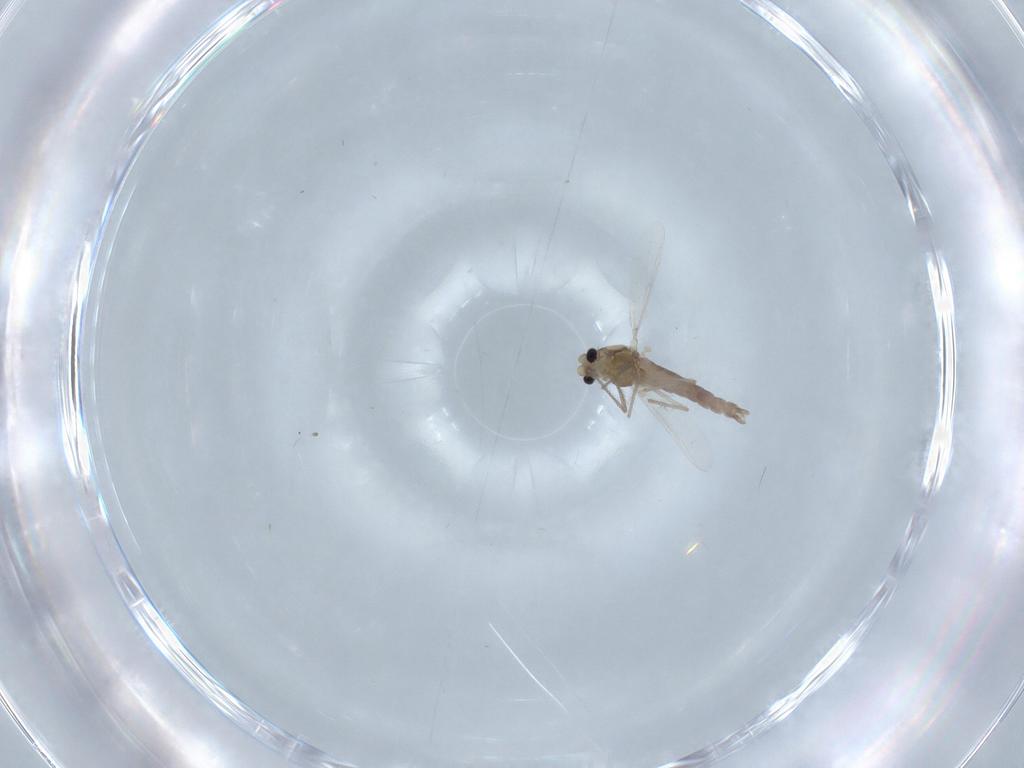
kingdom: Animalia
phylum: Arthropoda
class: Insecta
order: Diptera
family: Chironomidae
